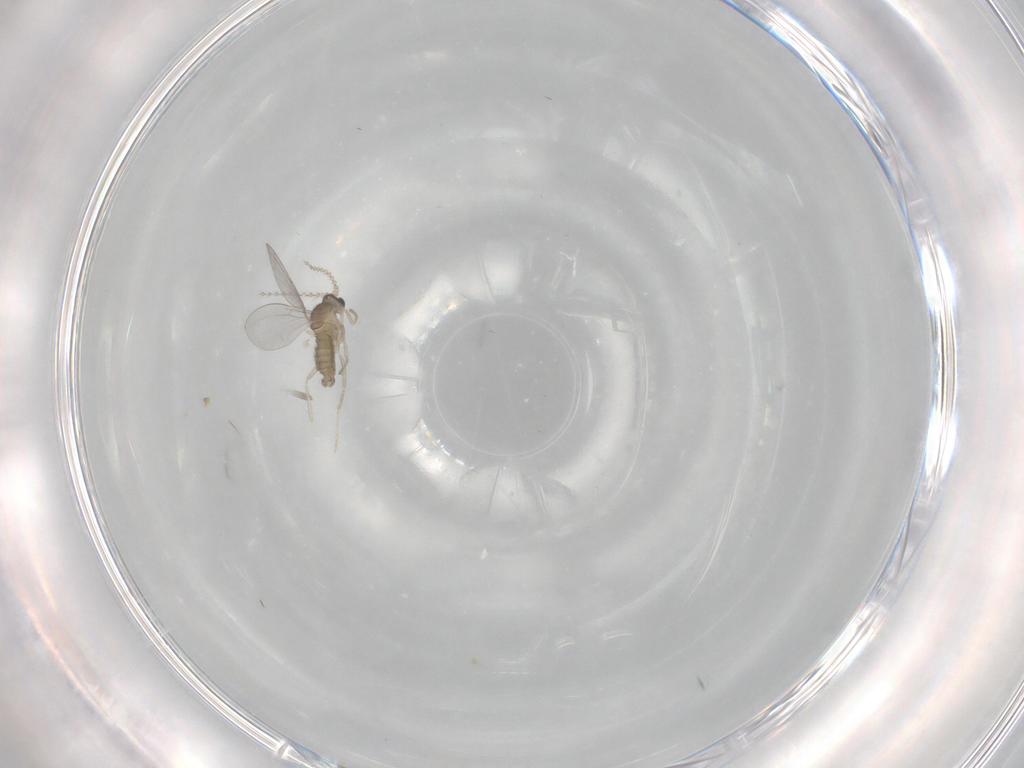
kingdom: Animalia
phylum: Arthropoda
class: Insecta
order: Diptera
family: Cecidomyiidae
